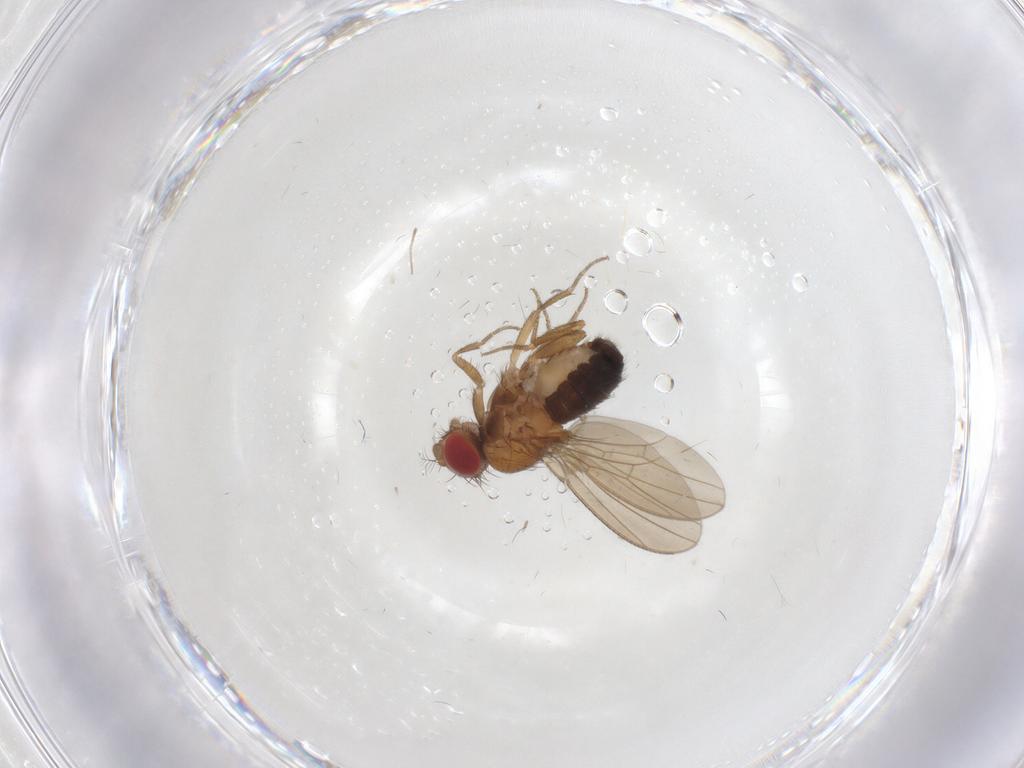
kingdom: Animalia
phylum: Arthropoda
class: Insecta
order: Diptera
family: Drosophilidae
